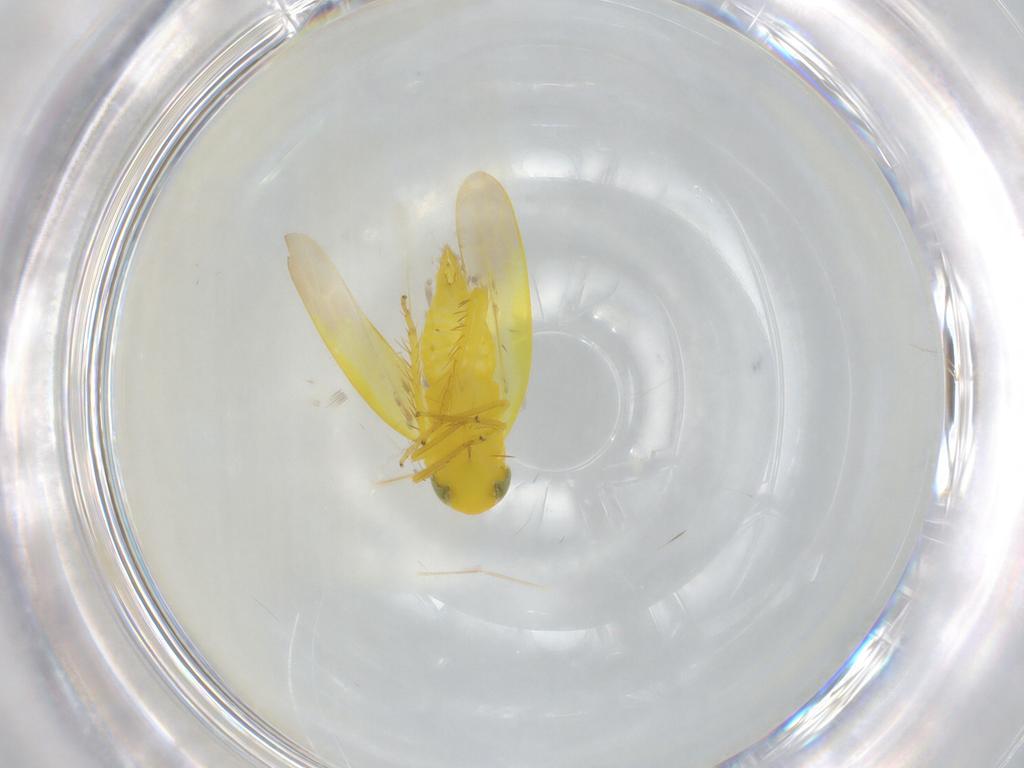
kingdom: Animalia
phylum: Arthropoda
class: Insecta
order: Hemiptera
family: Cicadellidae
